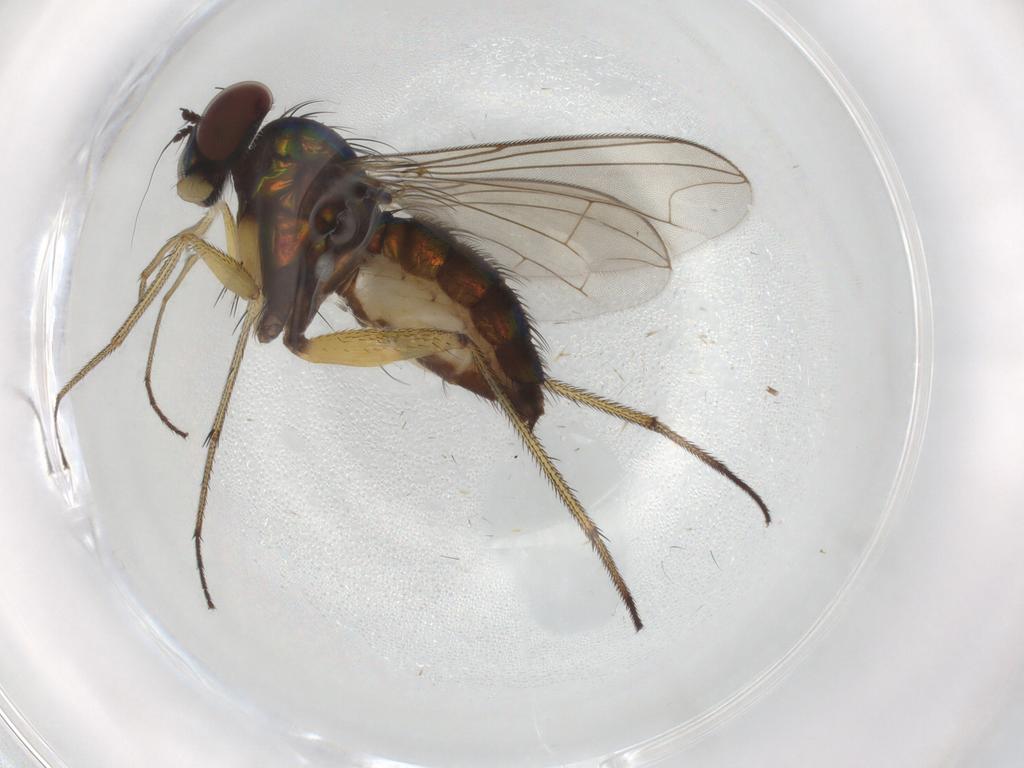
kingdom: Animalia
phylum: Arthropoda
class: Insecta
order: Diptera
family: Chironomidae
